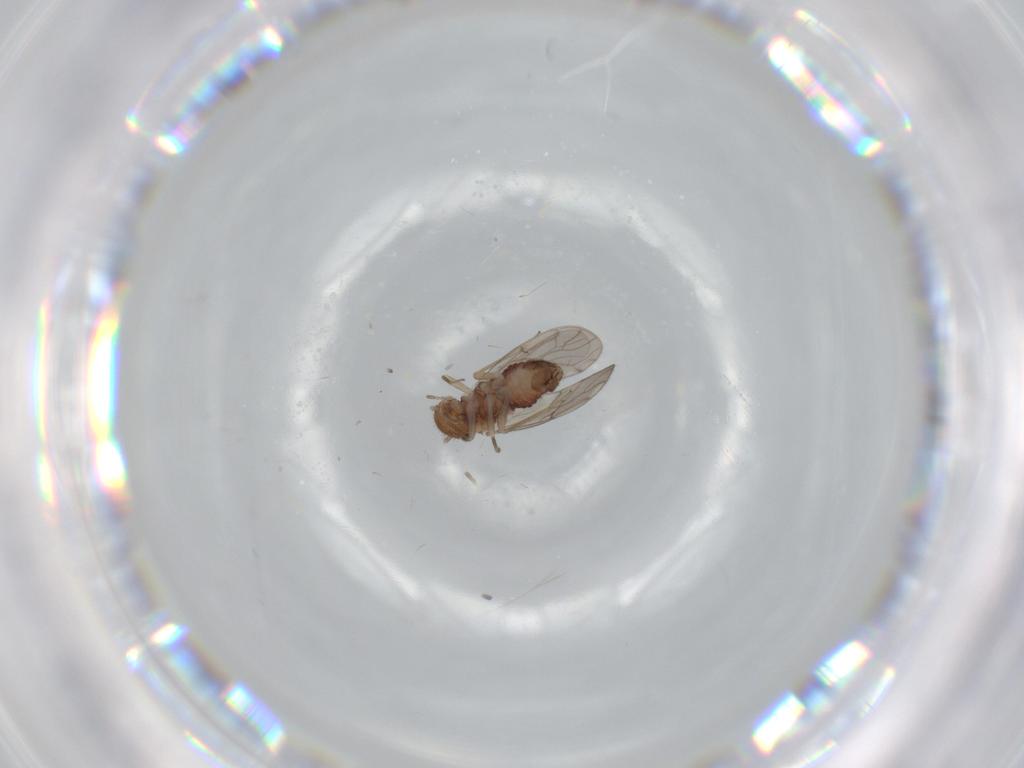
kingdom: Animalia
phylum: Arthropoda
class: Insecta
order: Psocodea
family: Ectopsocidae
